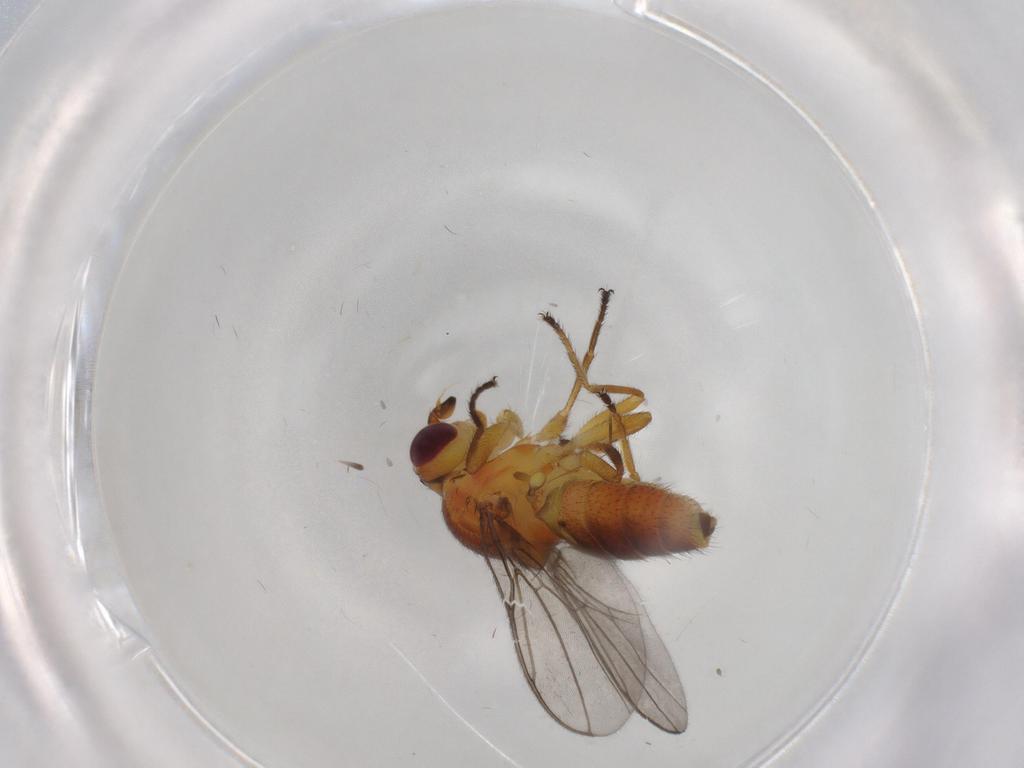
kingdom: Animalia
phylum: Arthropoda
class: Insecta
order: Diptera
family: Chloropidae
